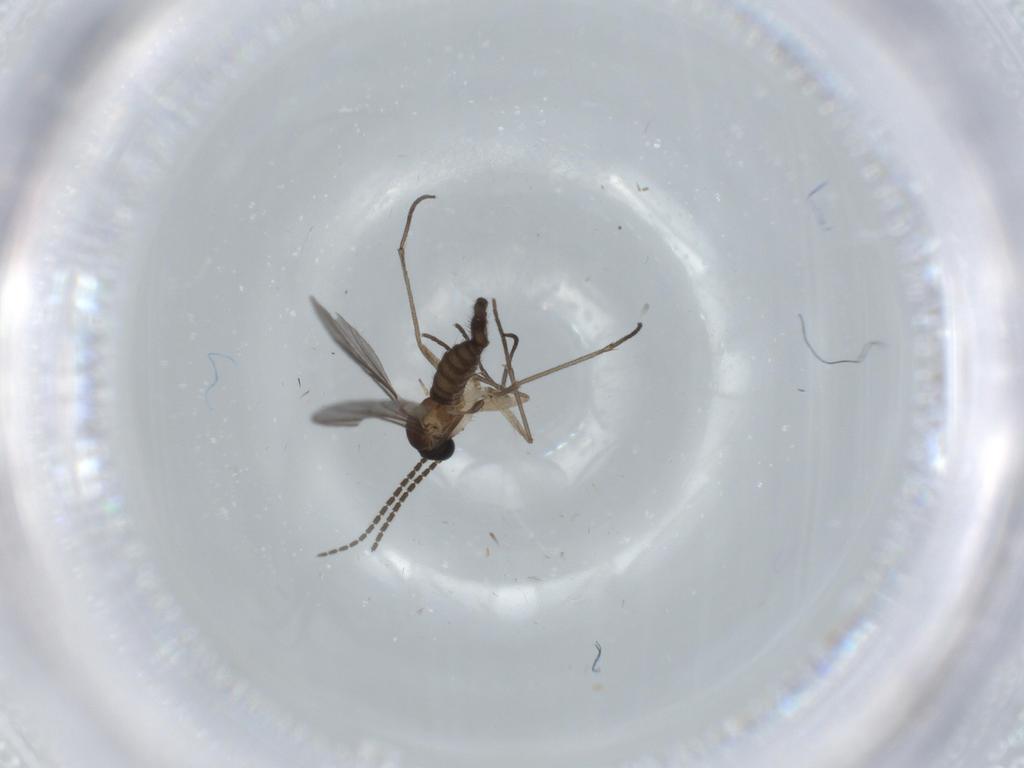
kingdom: Animalia
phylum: Arthropoda
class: Insecta
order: Diptera
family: Sciaridae
